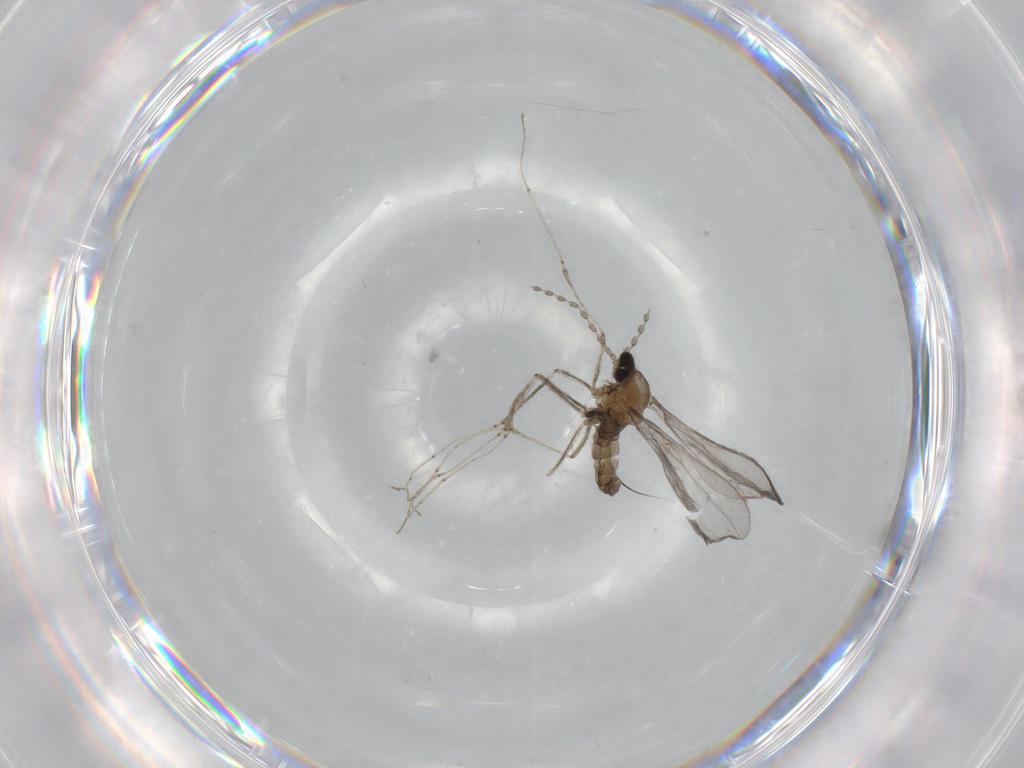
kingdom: Animalia
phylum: Arthropoda
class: Insecta
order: Diptera
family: Cecidomyiidae
